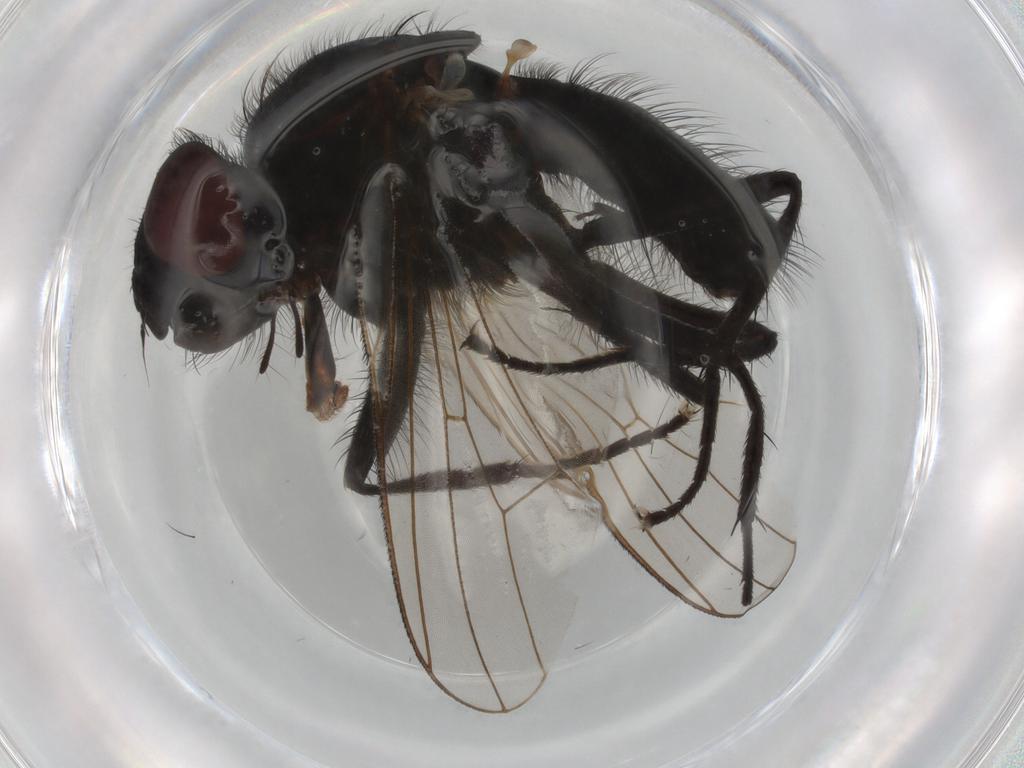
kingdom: Animalia
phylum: Arthropoda
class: Insecta
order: Diptera
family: Anthomyiidae
